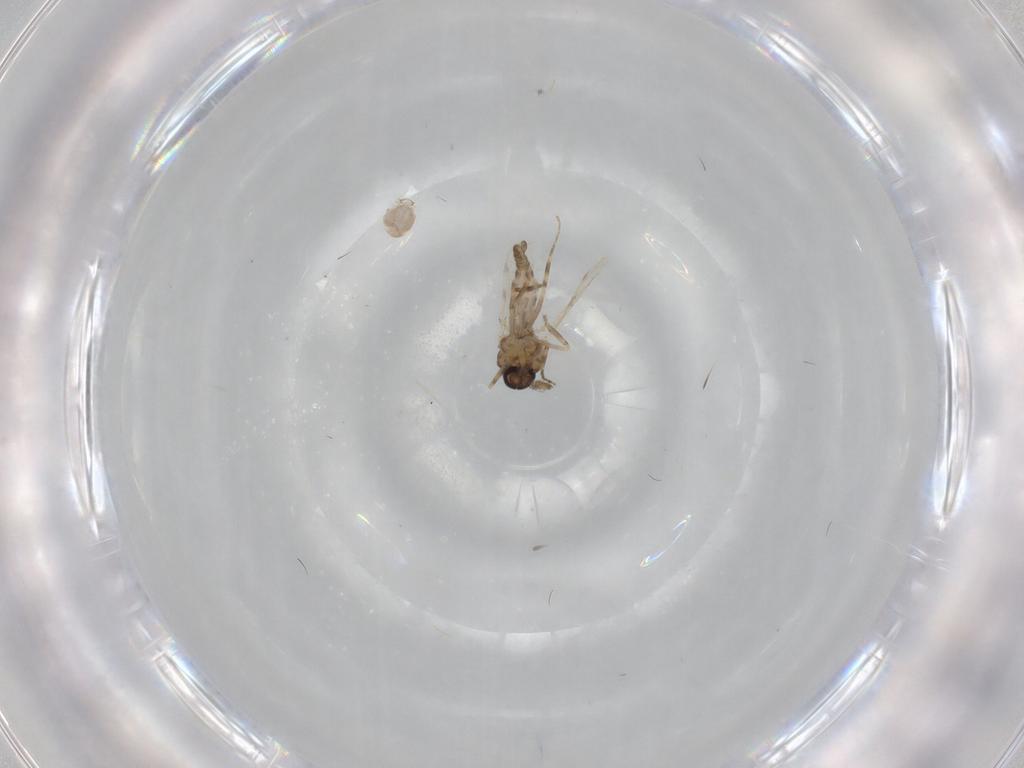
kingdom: Animalia
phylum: Arthropoda
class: Insecta
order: Diptera
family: Ceratopogonidae
